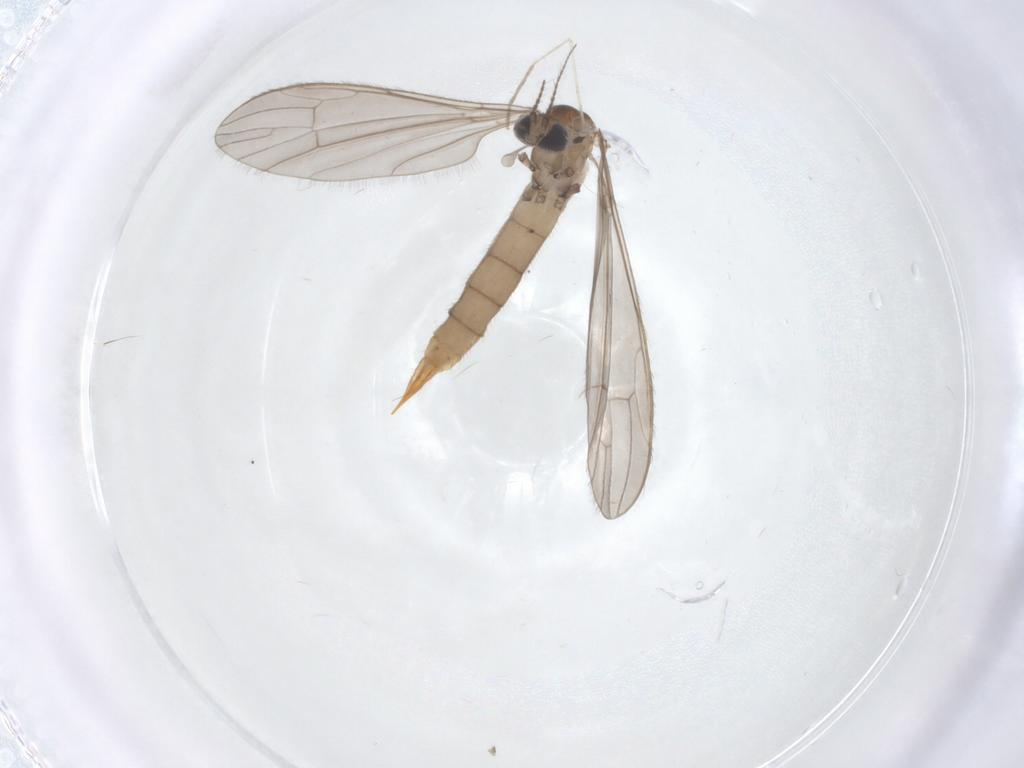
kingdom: Animalia
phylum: Arthropoda
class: Insecta
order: Diptera
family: Limoniidae
